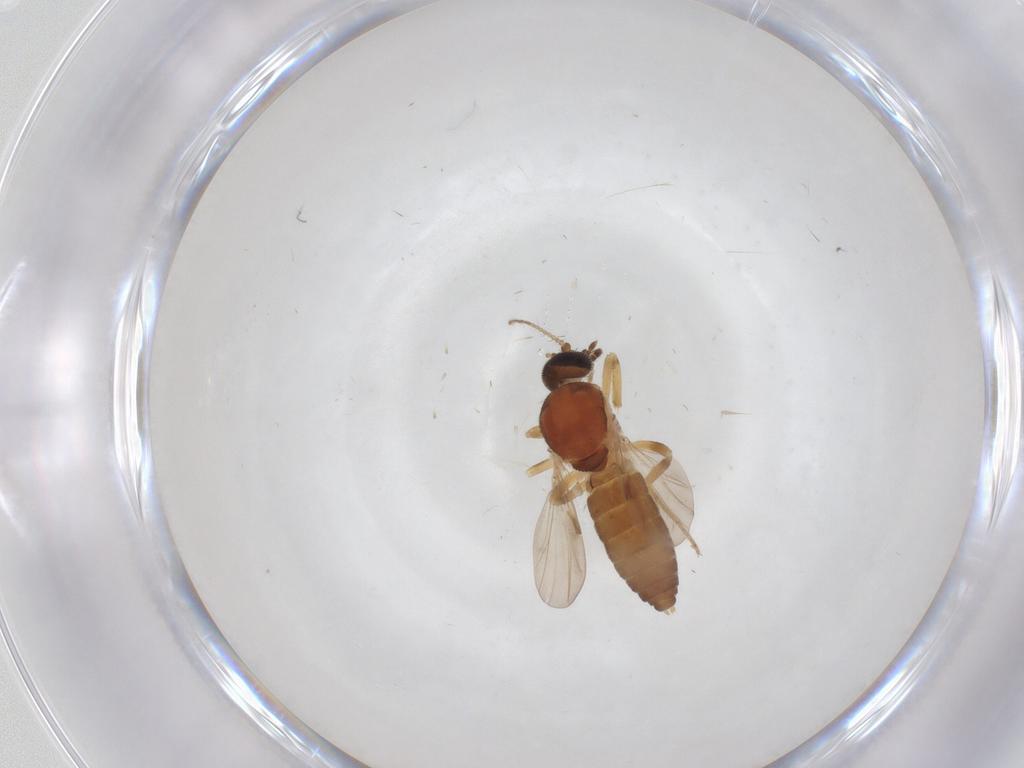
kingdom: Animalia
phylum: Arthropoda
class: Insecta
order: Diptera
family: Ceratopogonidae
